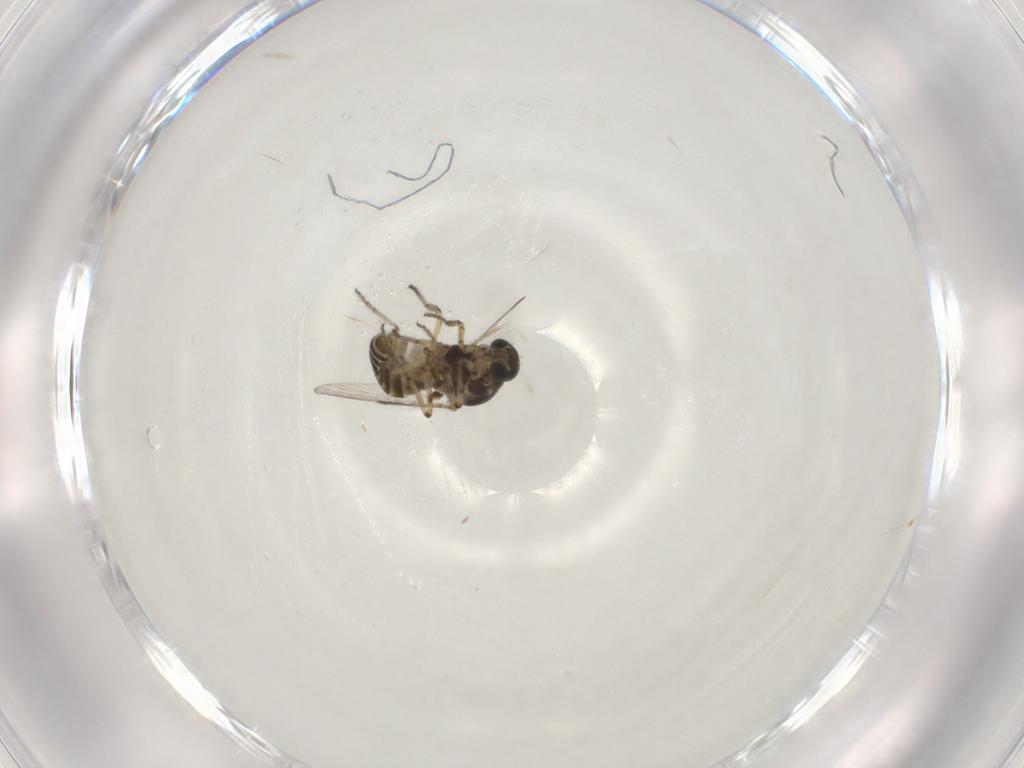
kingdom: Animalia
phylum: Arthropoda
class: Insecta
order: Diptera
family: Ceratopogonidae
